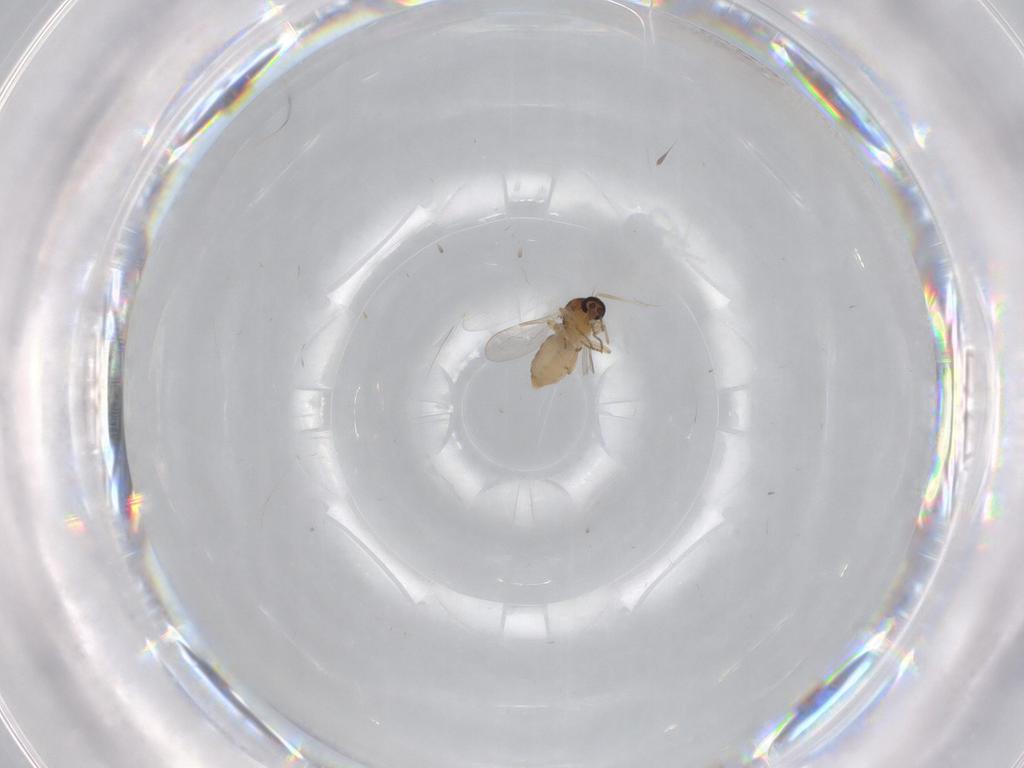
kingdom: Animalia
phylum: Arthropoda
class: Insecta
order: Diptera
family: Ceratopogonidae
